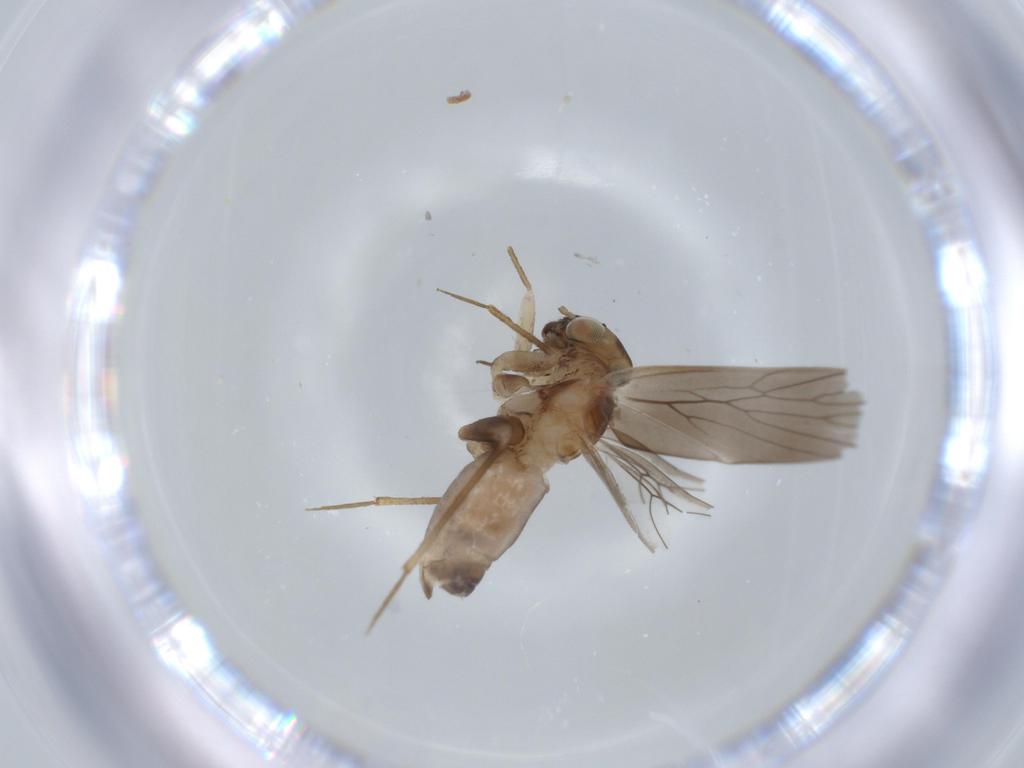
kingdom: Animalia
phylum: Arthropoda
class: Insecta
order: Psocodea
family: Lepidopsocidae
